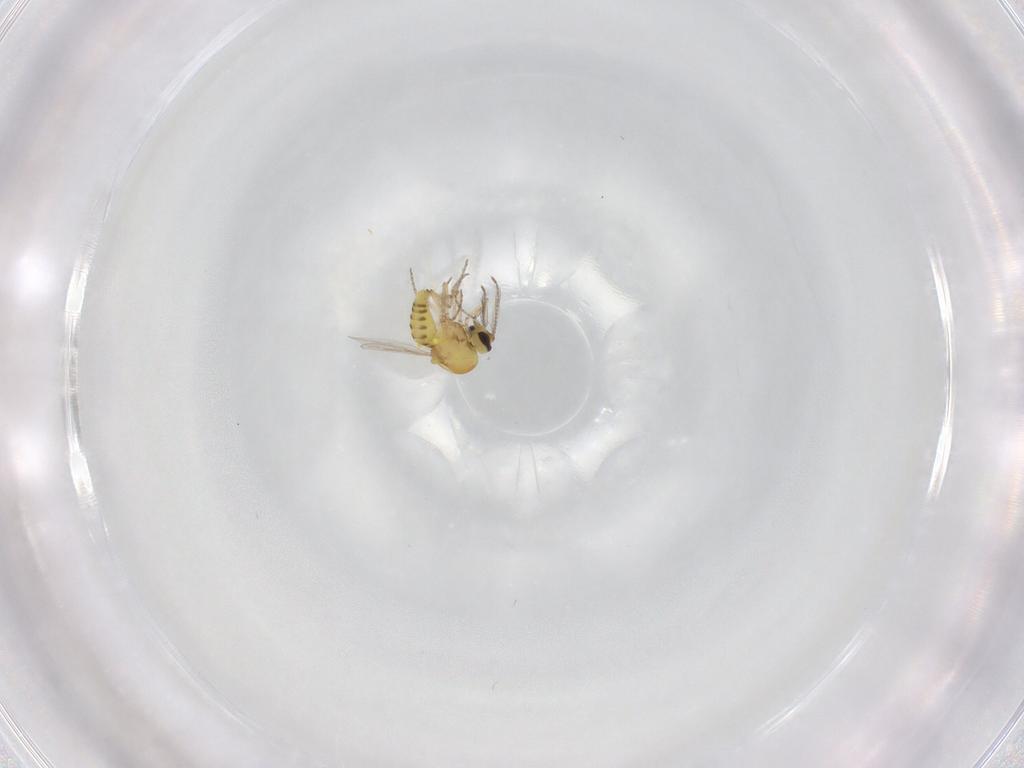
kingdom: Animalia
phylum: Arthropoda
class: Insecta
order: Diptera
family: Ceratopogonidae
